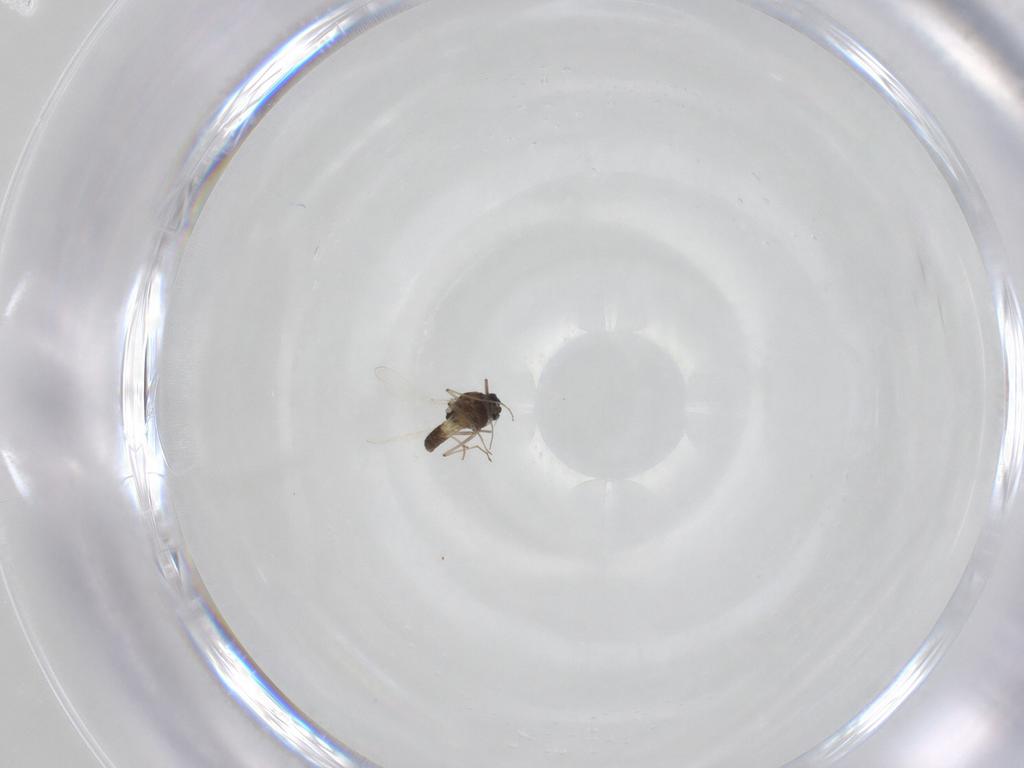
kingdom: Animalia
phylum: Arthropoda
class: Insecta
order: Diptera
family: Chironomidae
